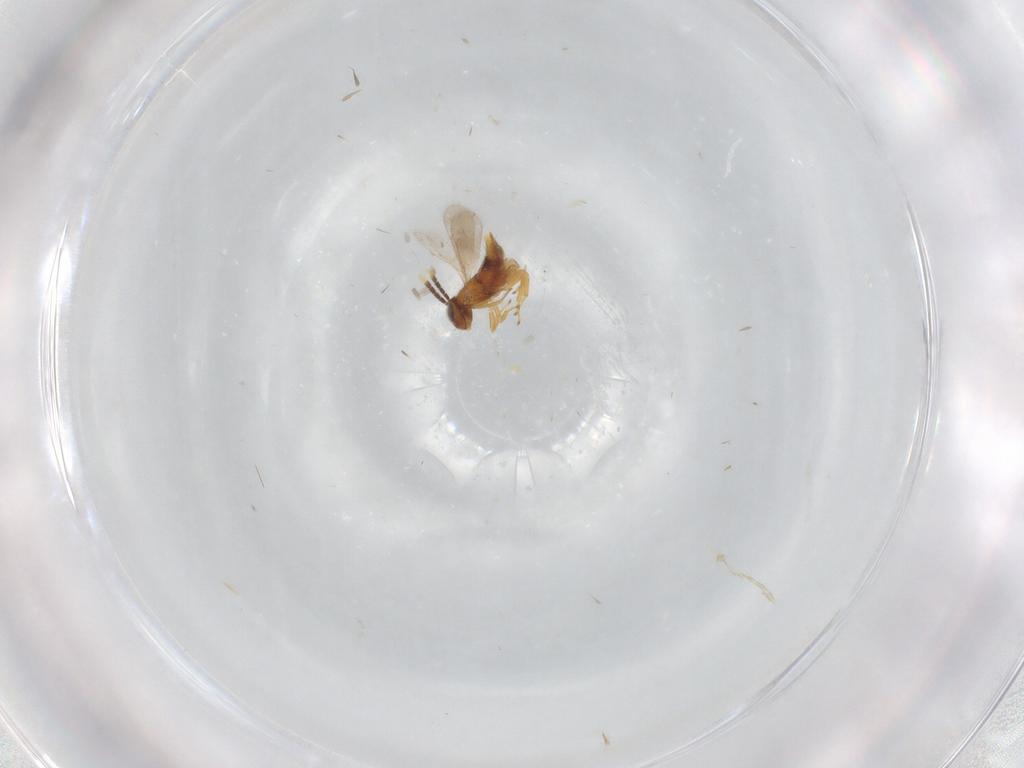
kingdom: Animalia
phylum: Arthropoda
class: Insecta
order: Hymenoptera
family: Aphelinidae
